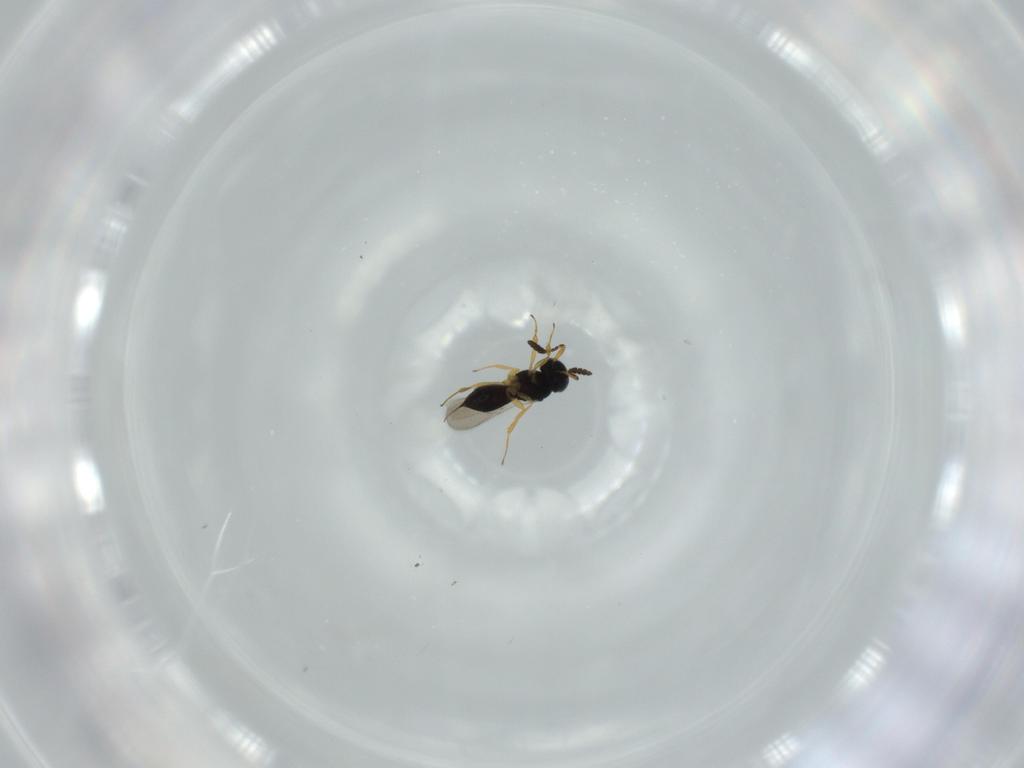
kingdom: Animalia
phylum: Arthropoda
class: Insecta
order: Hymenoptera
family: Scelionidae
